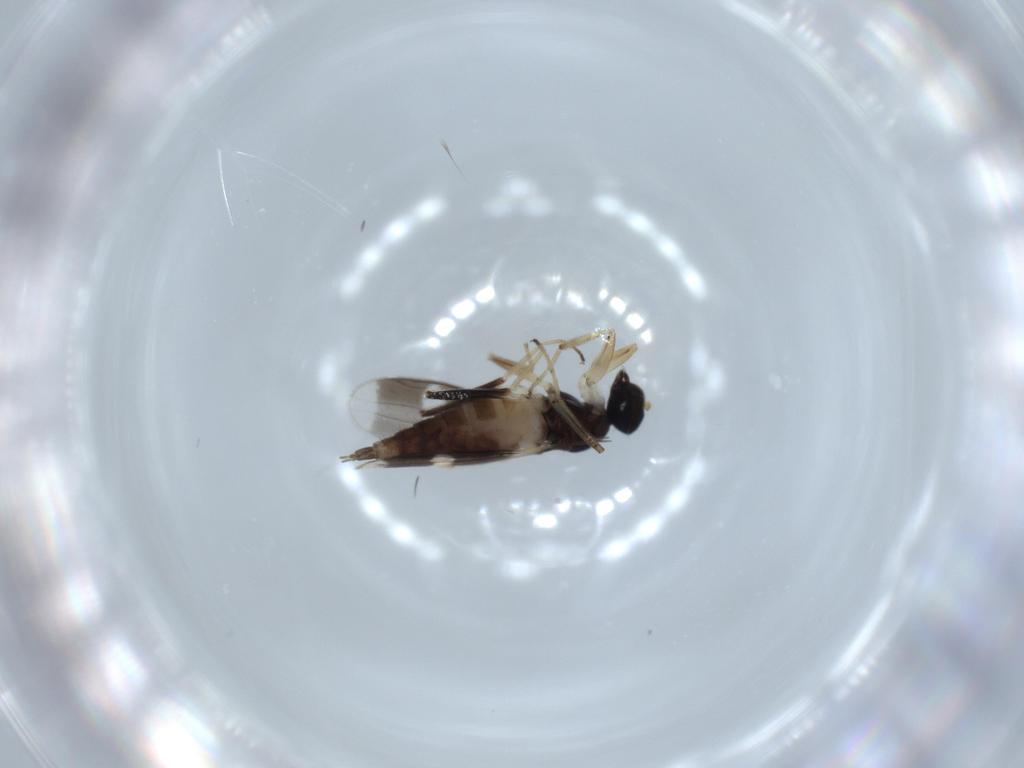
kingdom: Animalia
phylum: Arthropoda
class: Insecta
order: Diptera
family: Hybotidae
